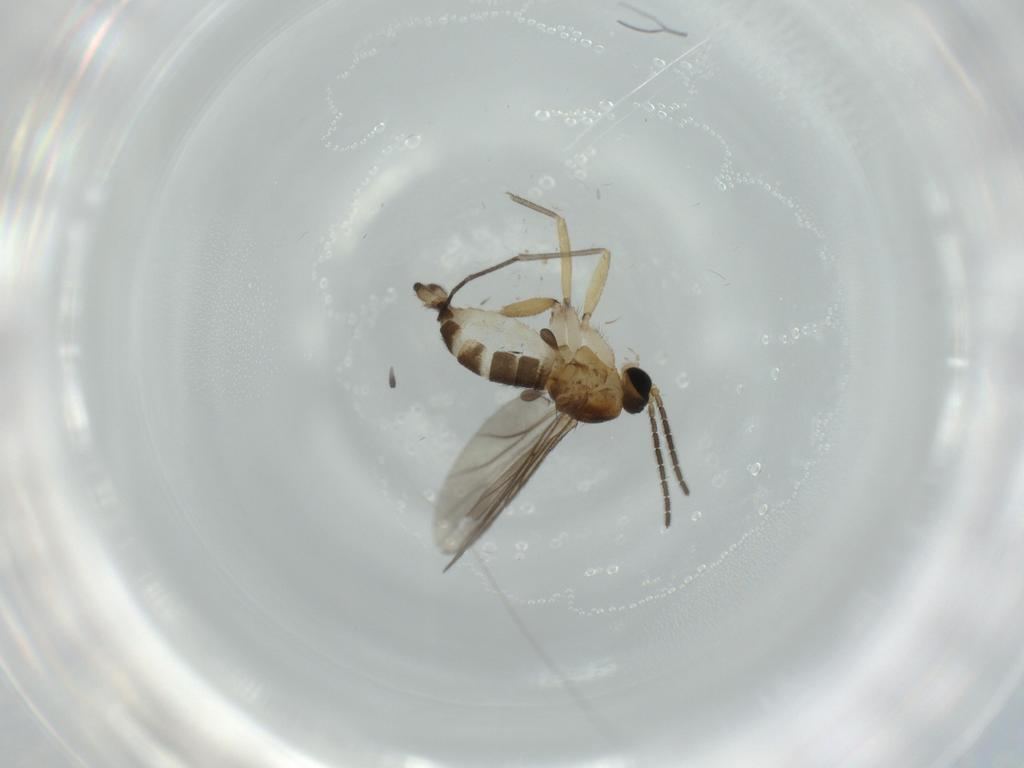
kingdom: Animalia
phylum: Arthropoda
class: Insecta
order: Diptera
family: Sciaridae
